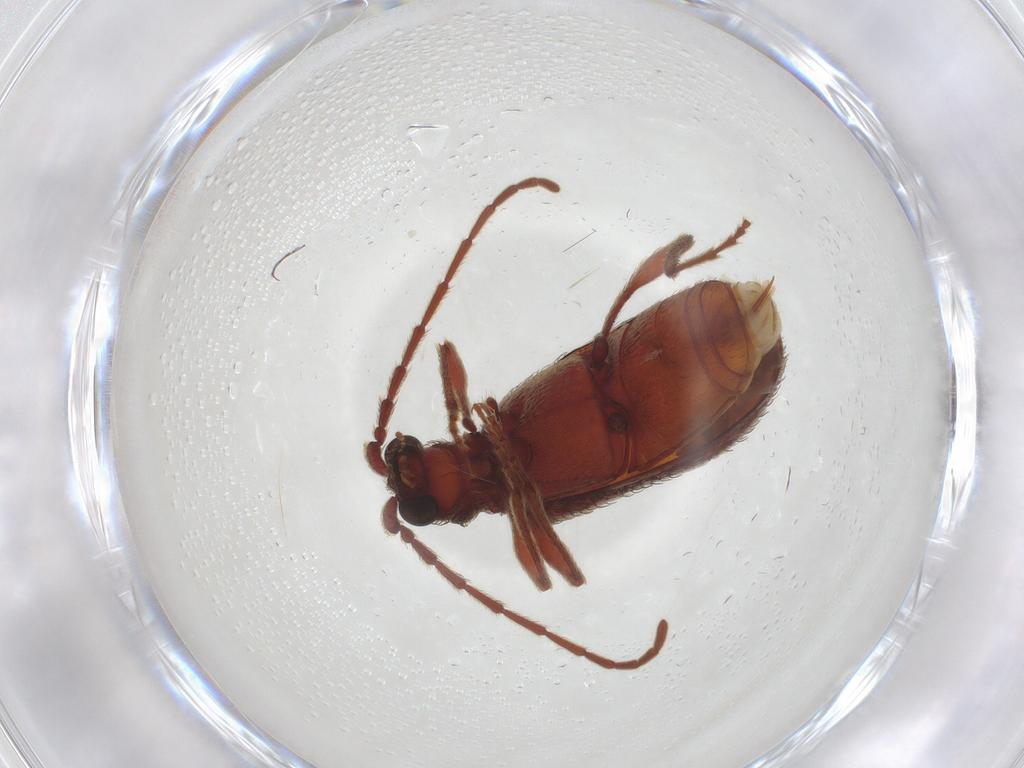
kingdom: Animalia
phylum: Arthropoda
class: Insecta
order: Coleoptera
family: Ptinidae
